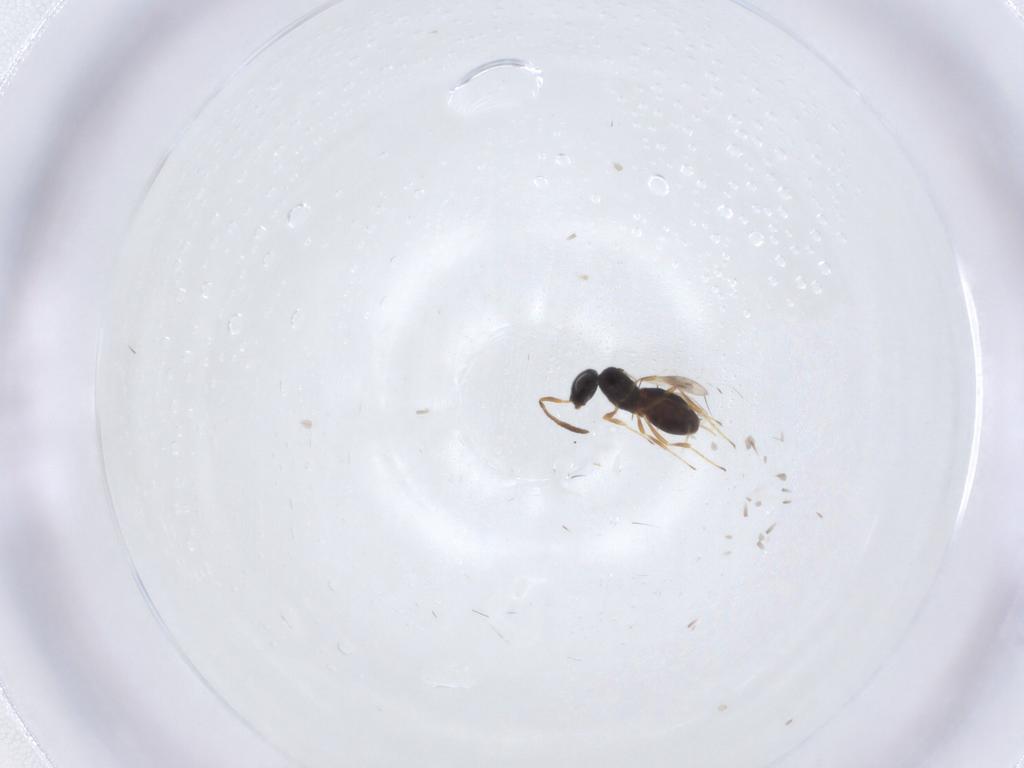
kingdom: Animalia
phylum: Arthropoda
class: Insecta
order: Hymenoptera
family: Scelionidae
